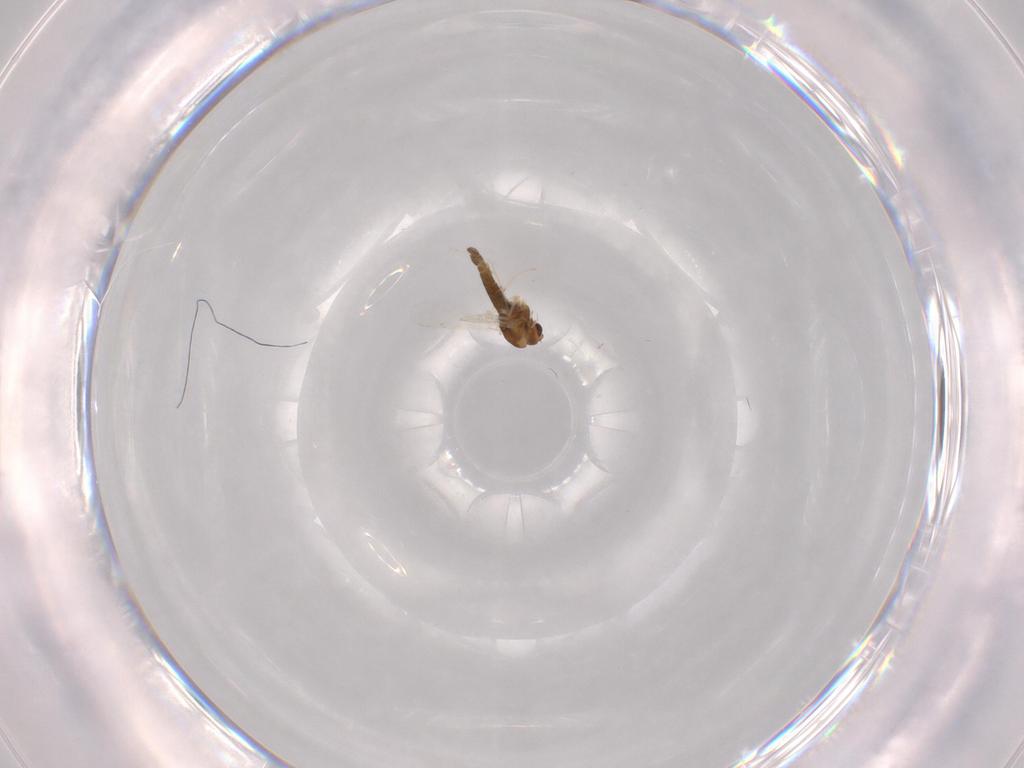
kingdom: Animalia
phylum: Arthropoda
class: Insecta
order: Diptera
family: Chironomidae
